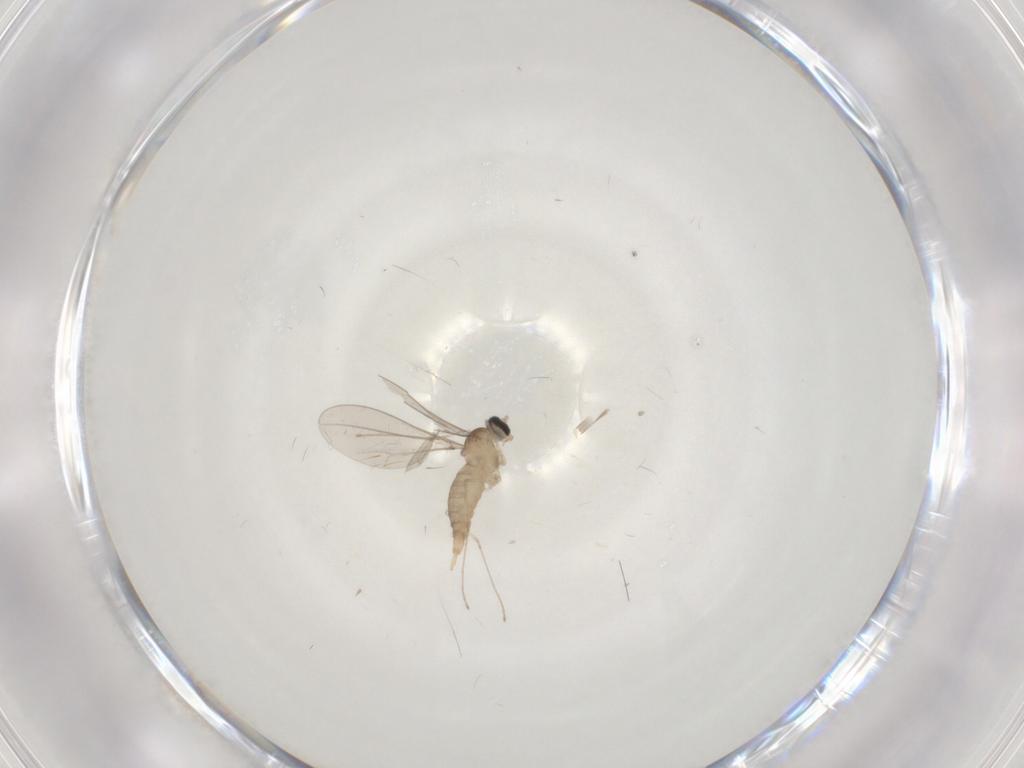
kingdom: Animalia
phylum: Arthropoda
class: Insecta
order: Diptera
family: Cecidomyiidae
